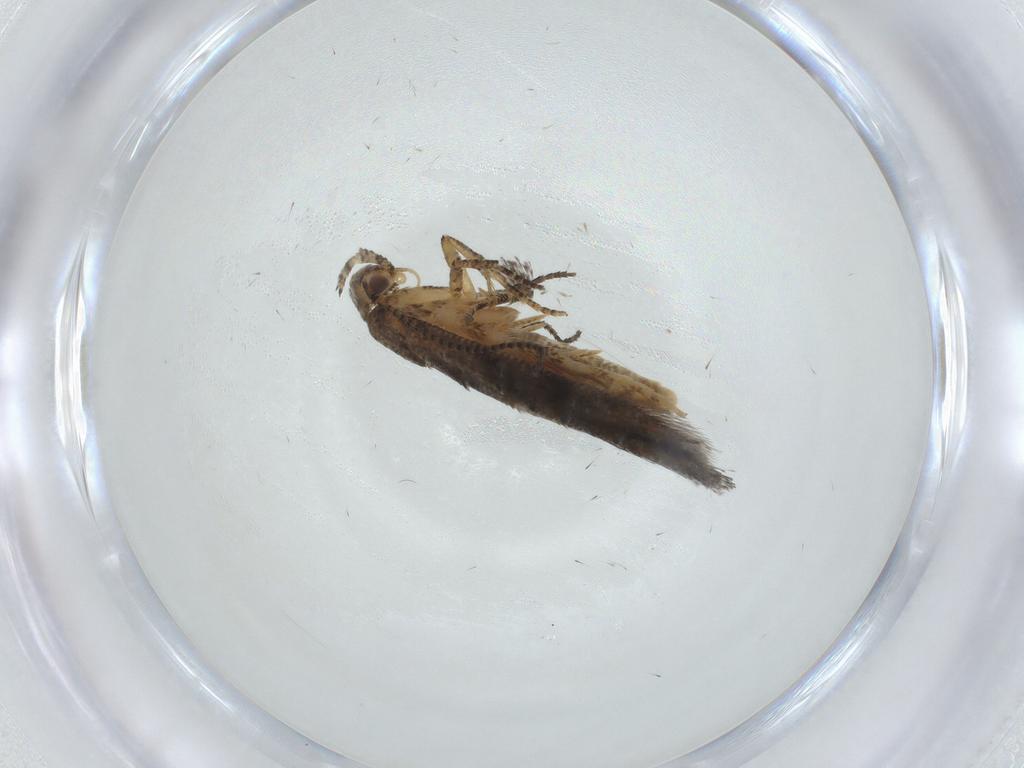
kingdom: Animalia
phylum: Arthropoda
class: Insecta
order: Lepidoptera
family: Elachistidae
